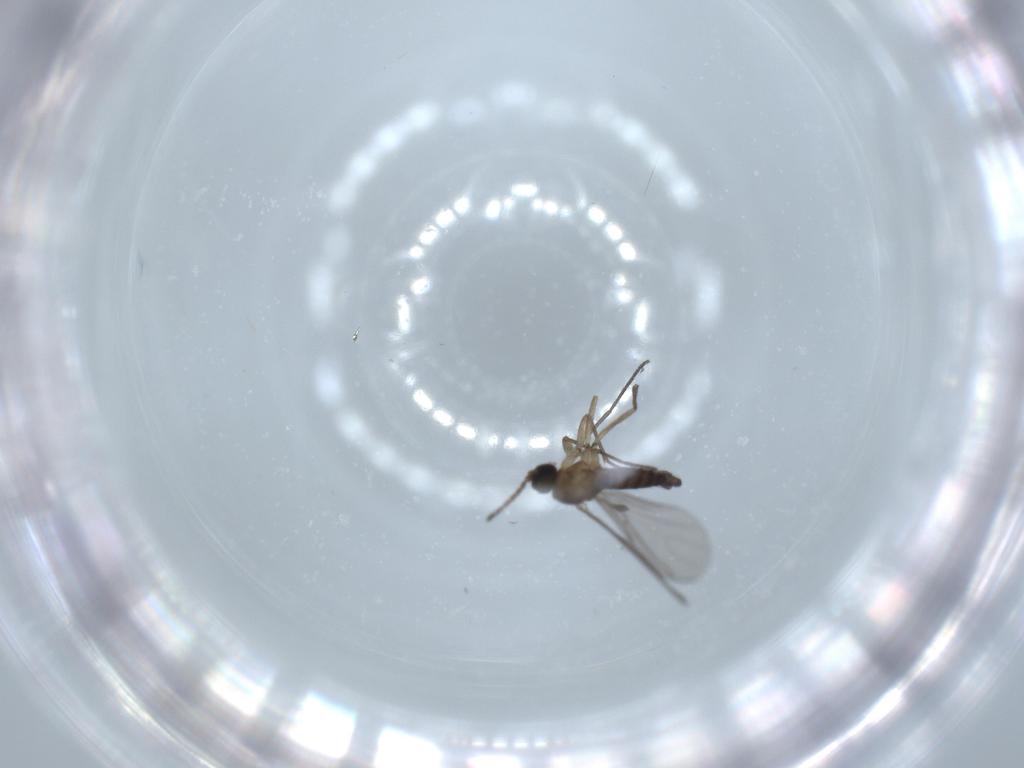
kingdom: Animalia
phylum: Arthropoda
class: Insecta
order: Diptera
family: Sciaridae
